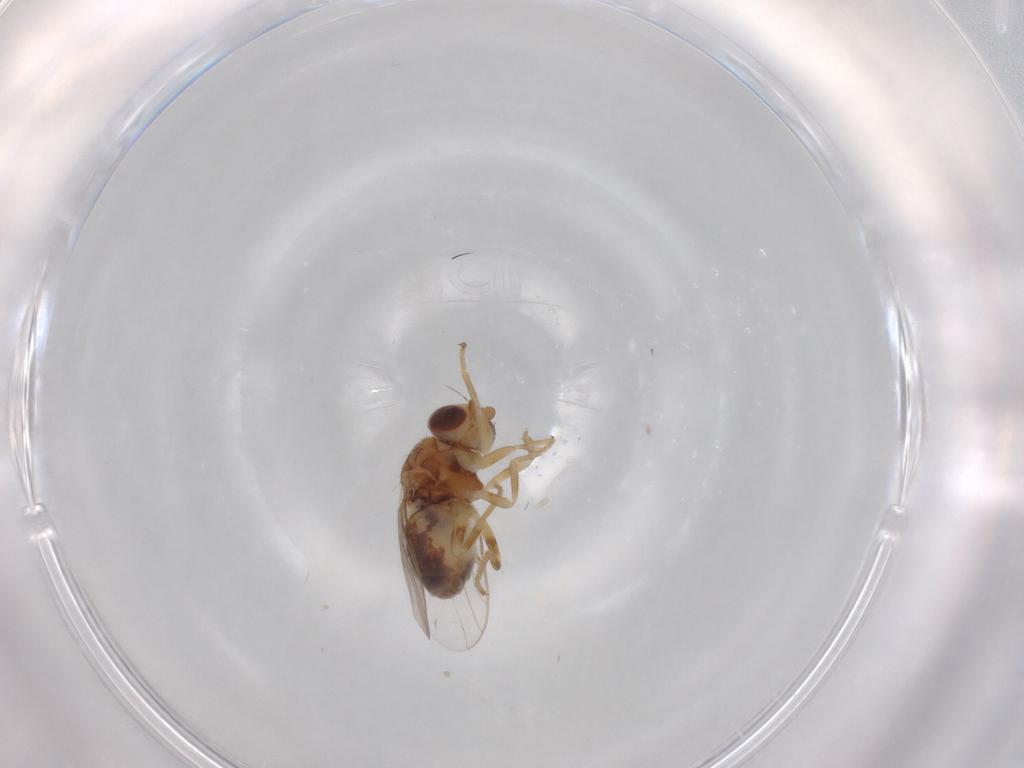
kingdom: Animalia
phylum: Arthropoda
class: Insecta
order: Diptera
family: Chloropidae
